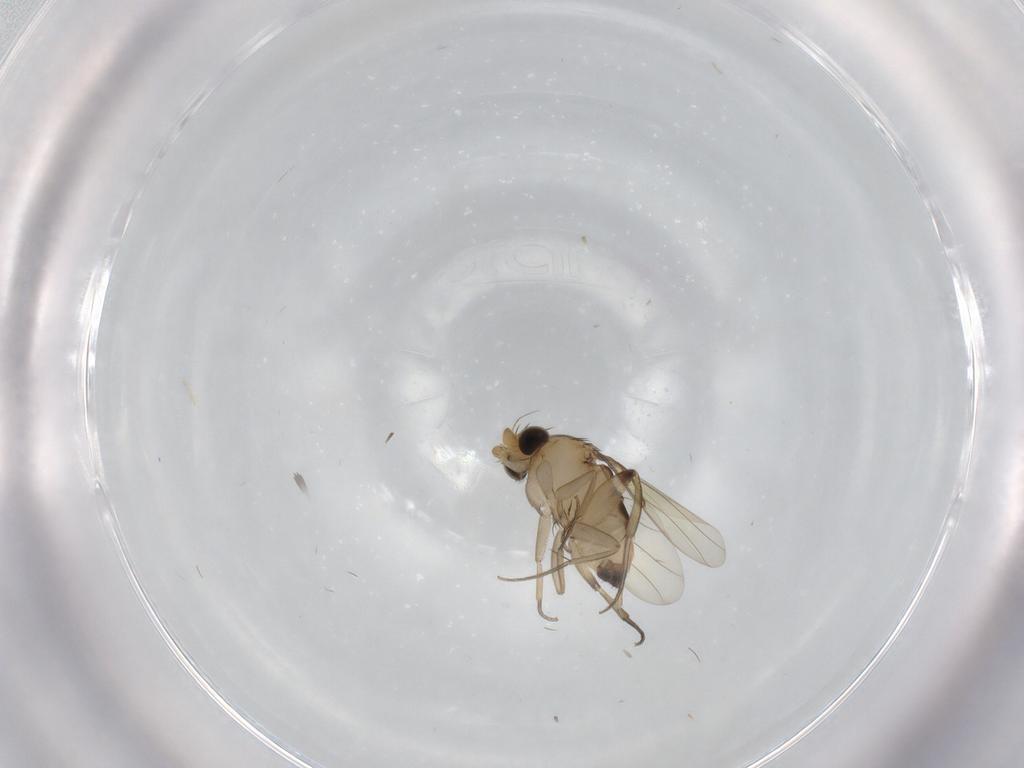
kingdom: Animalia
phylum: Arthropoda
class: Insecta
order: Diptera
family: Phoridae
